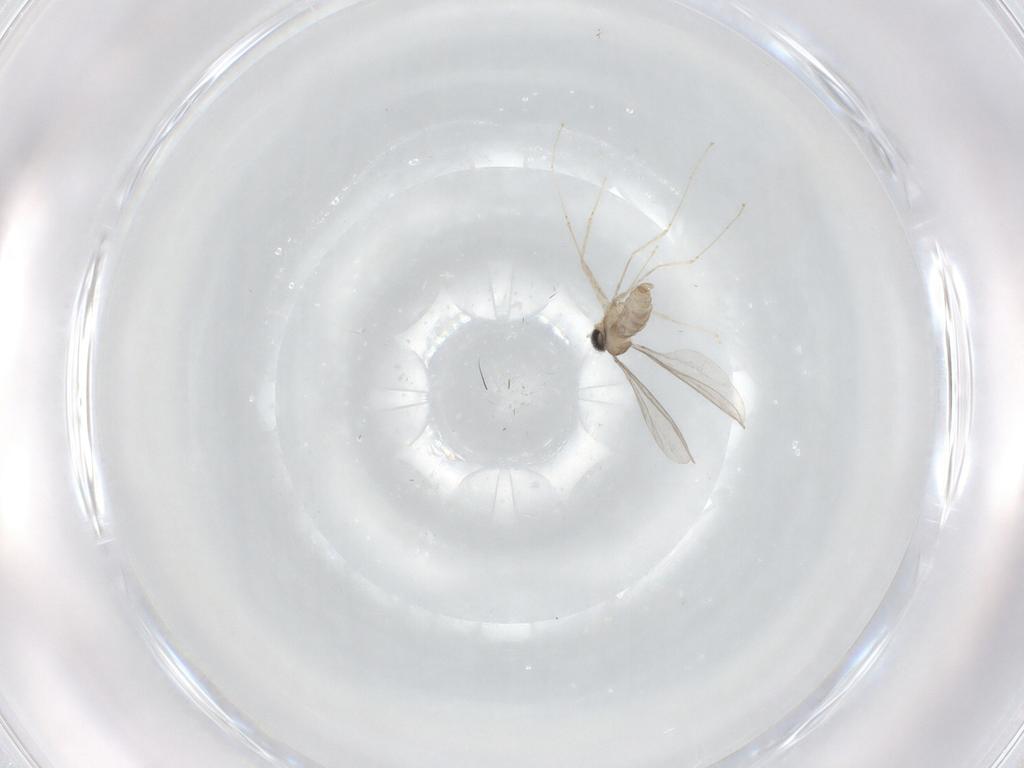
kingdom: Animalia
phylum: Arthropoda
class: Insecta
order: Diptera
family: Cecidomyiidae
